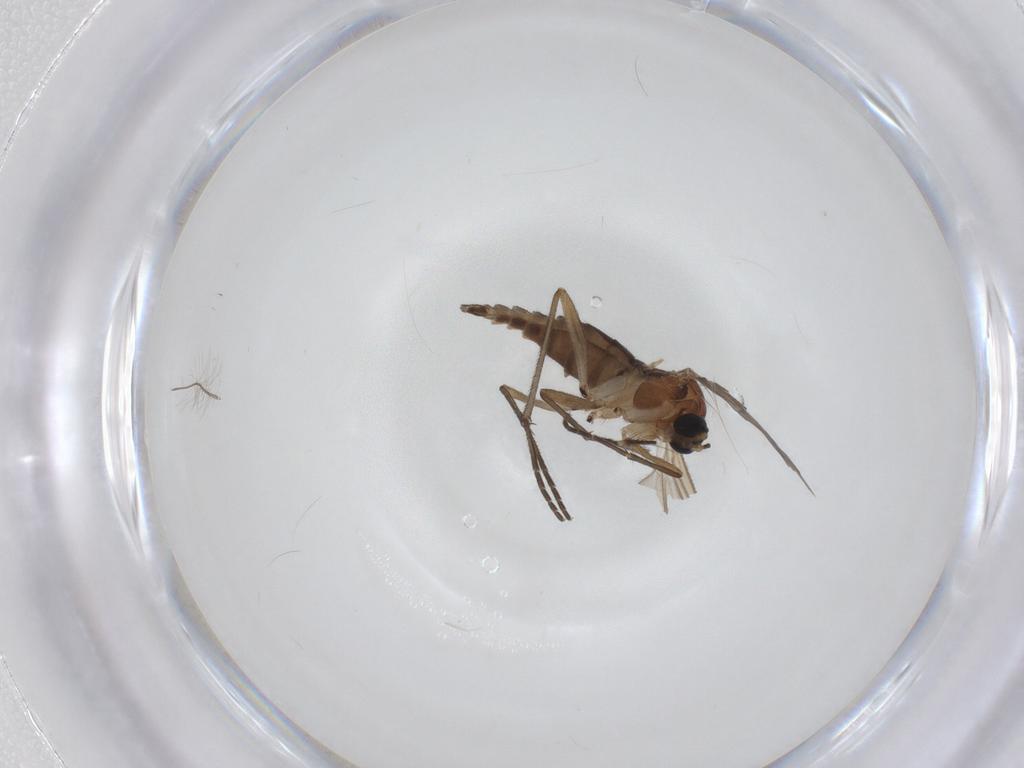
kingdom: Animalia
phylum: Arthropoda
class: Insecta
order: Diptera
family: Sciaridae
